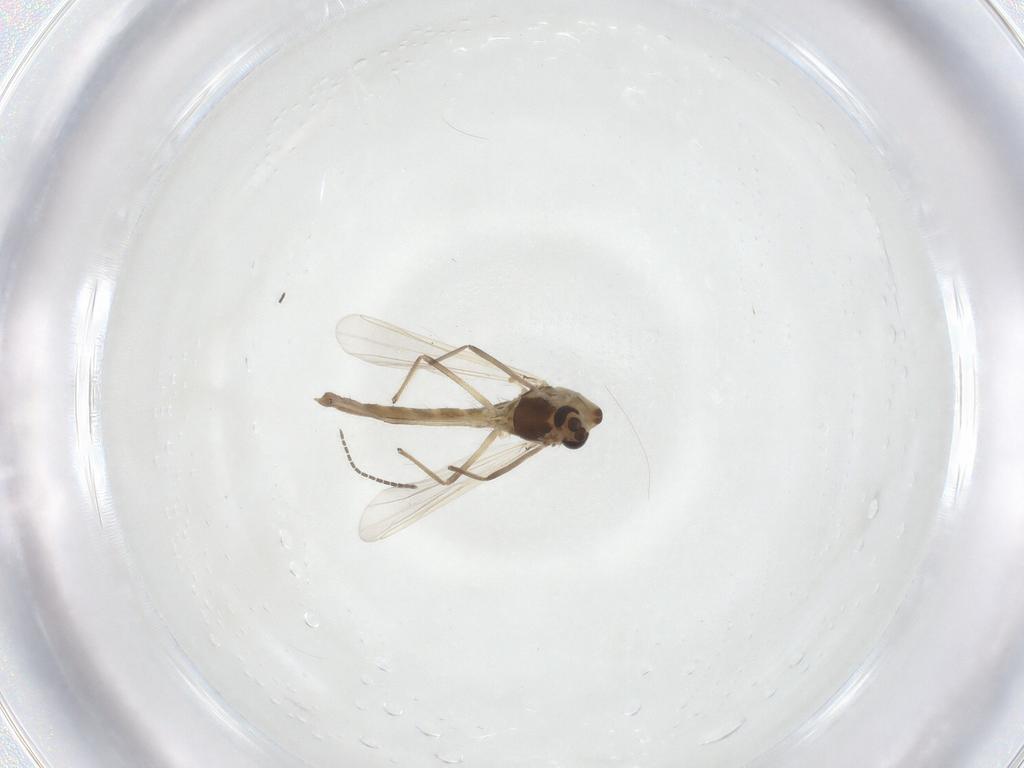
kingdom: Animalia
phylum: Arthropoda
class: Insecta
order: Diptera
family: Chironomidae
